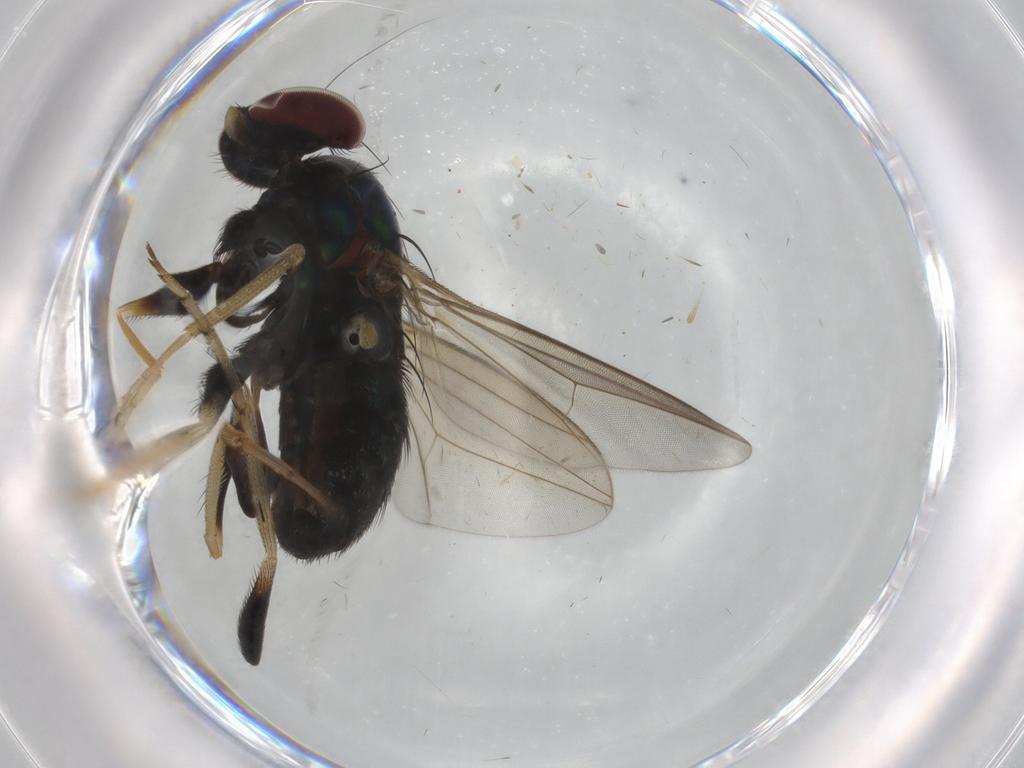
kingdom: Animalia
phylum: Arthropoda
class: Insecta
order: Diptera
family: Dolichopodidae
